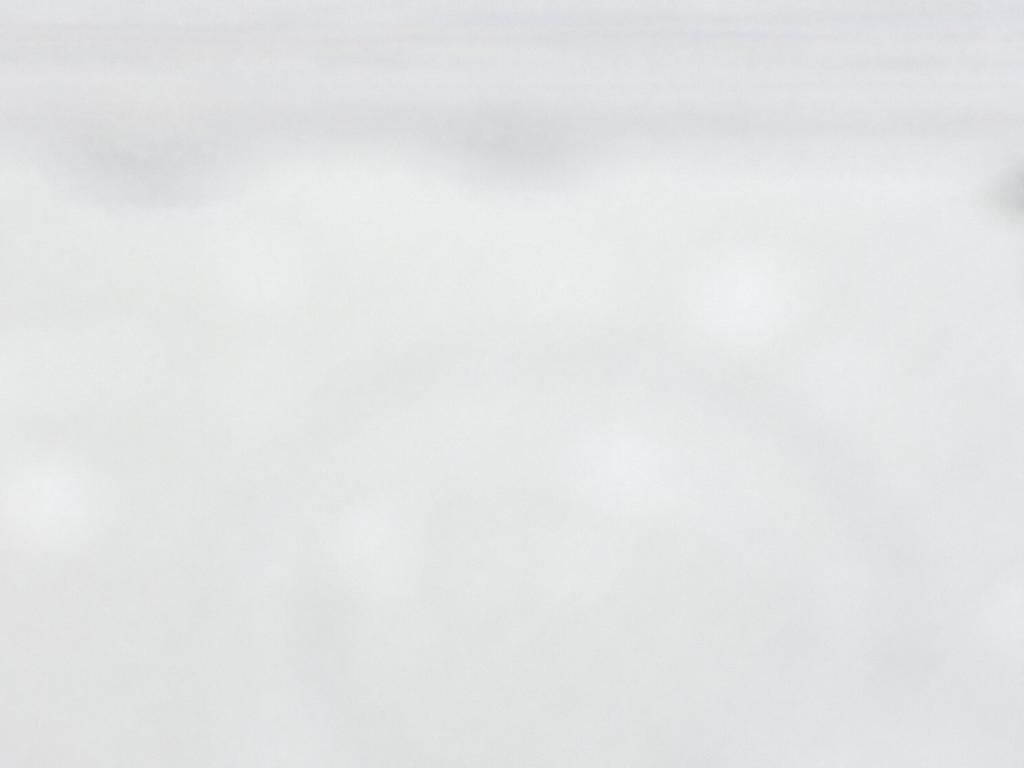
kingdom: Animalia
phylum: Arthropoda
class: Insecta
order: Diptera
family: Cecidomyiidae
